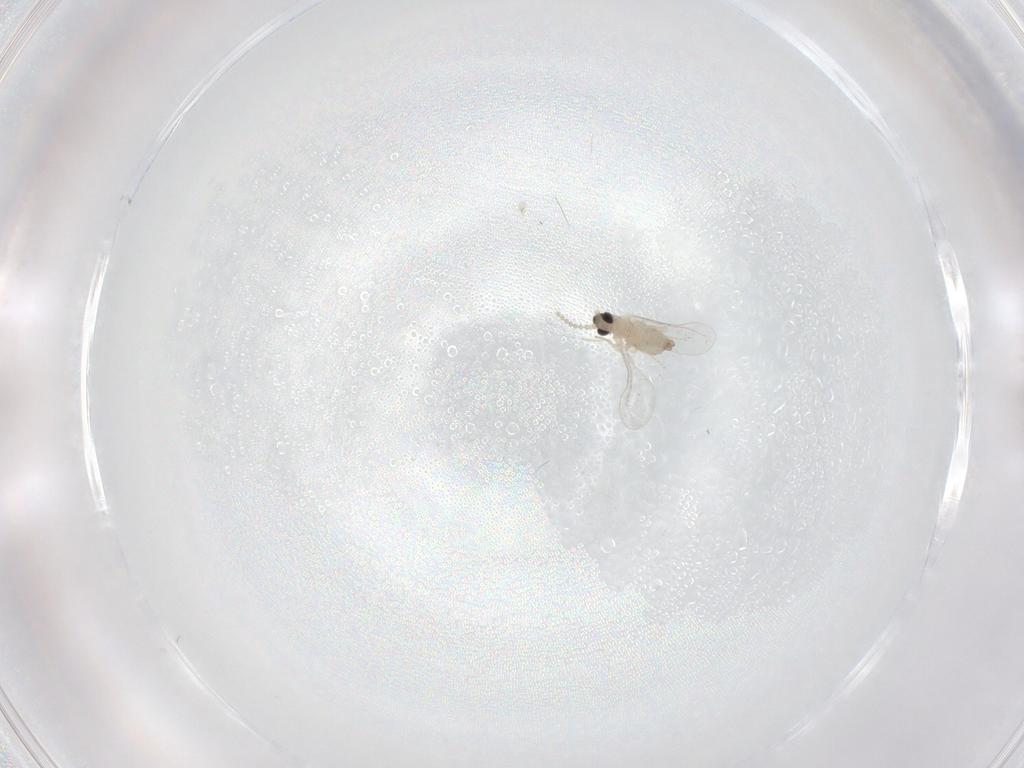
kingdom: Animalia
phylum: Arthropoda
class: Insecta
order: Diptera
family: Cecidomyiidae
